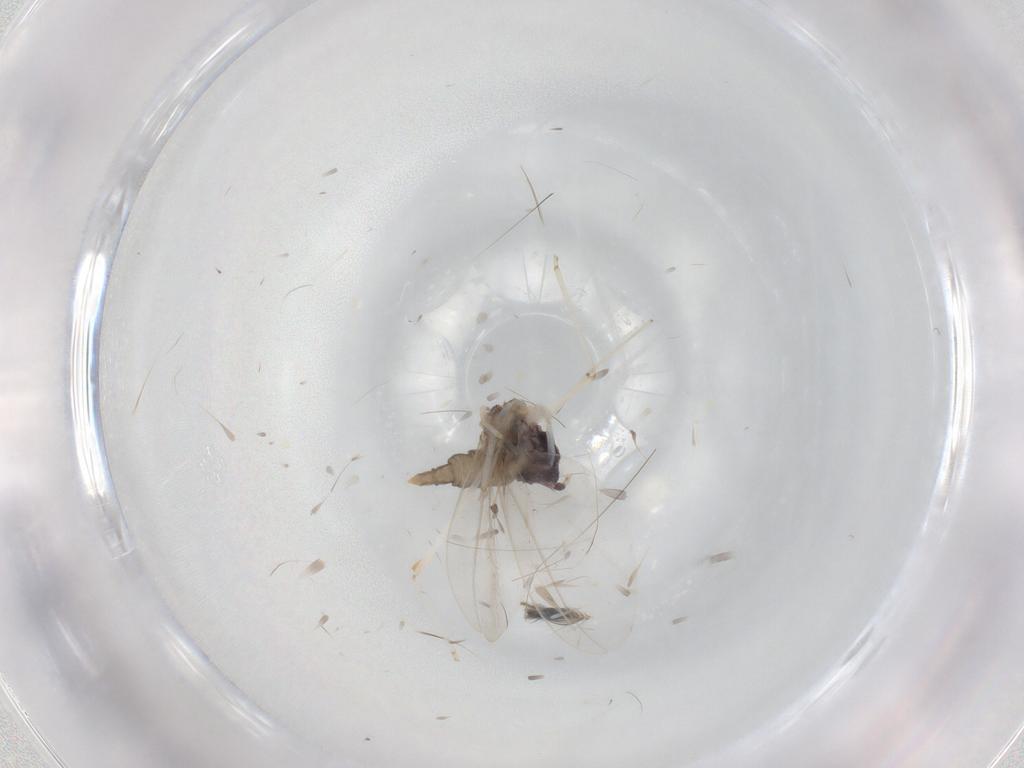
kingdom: Animalia
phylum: Arthropoda
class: Insecta
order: Diptera
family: Cecidomyiidae
